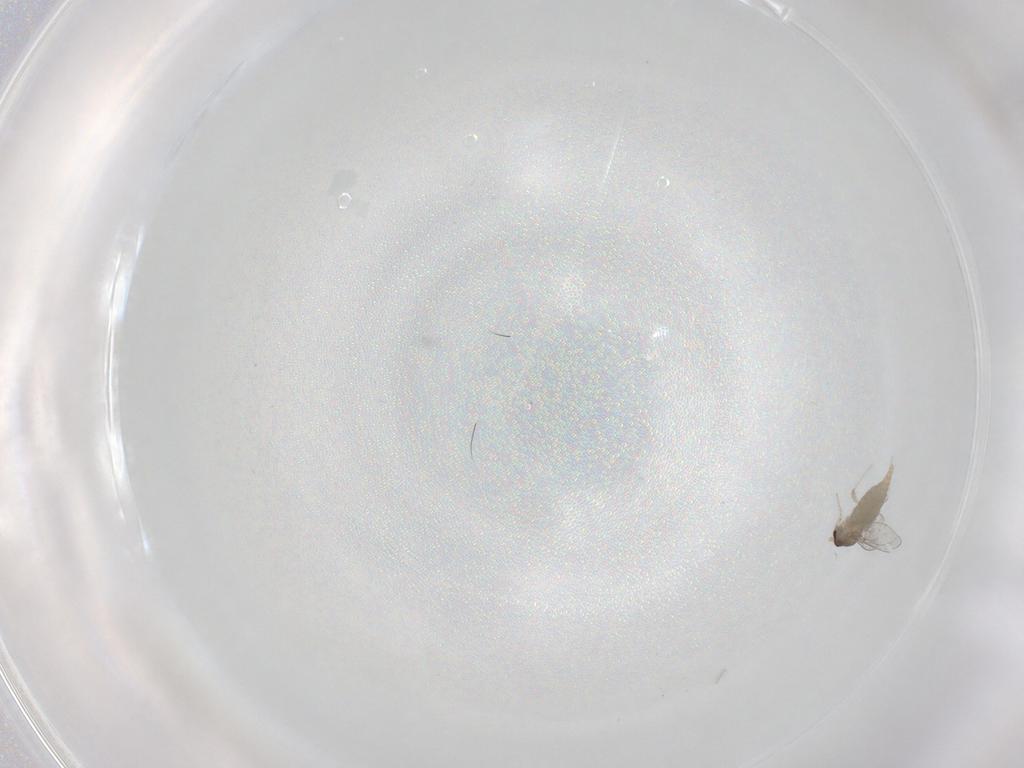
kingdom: Animalia
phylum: Arthropoda
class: Insecta
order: Diptera
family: Cecidomyiidae
